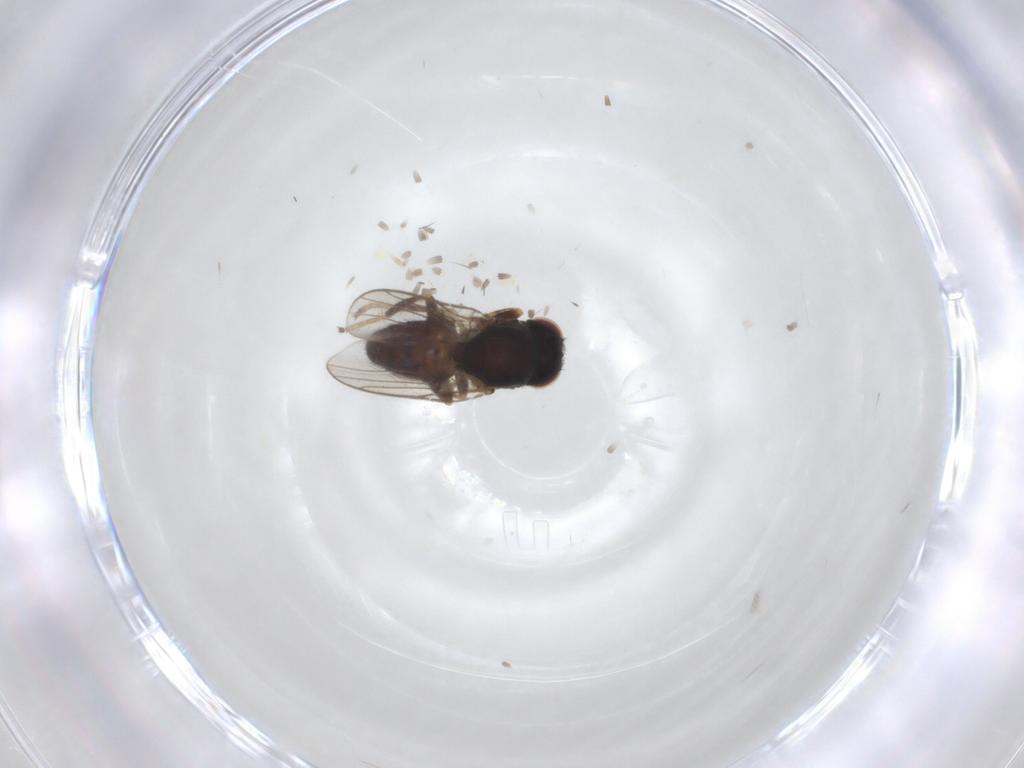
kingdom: Animalia
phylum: Arthropoda
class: Insecta
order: Diptera
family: Chloropidae
